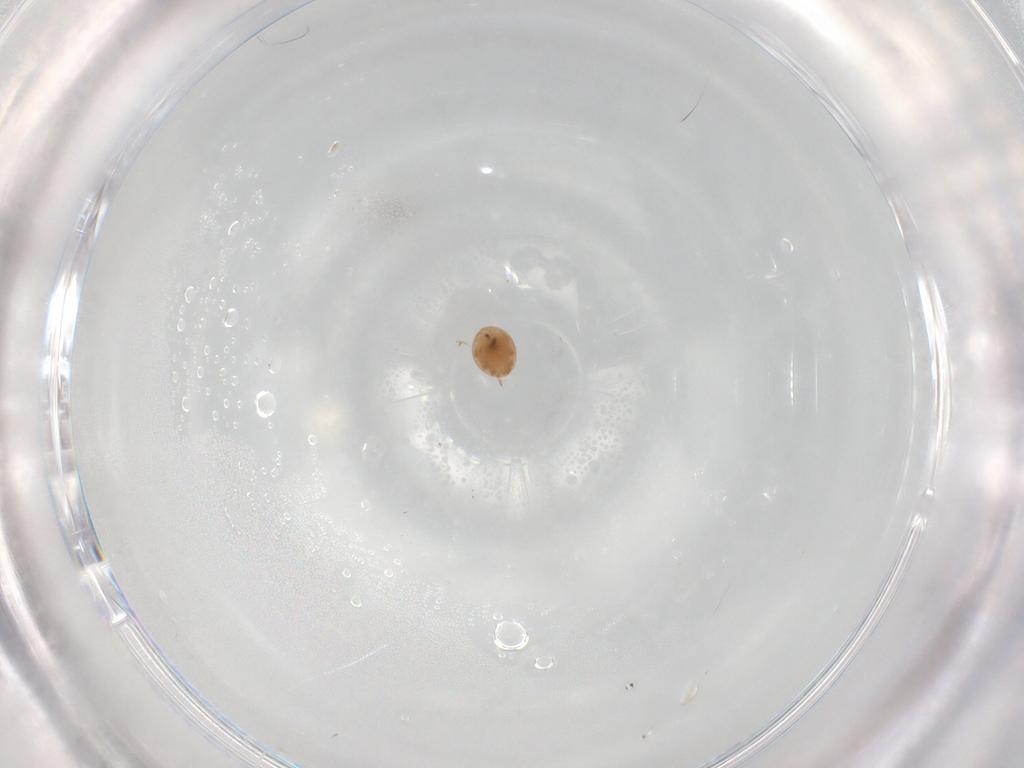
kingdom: Animalia
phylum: Arthropoda
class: Arachnida
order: Mesostigmata
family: Trematuridae
